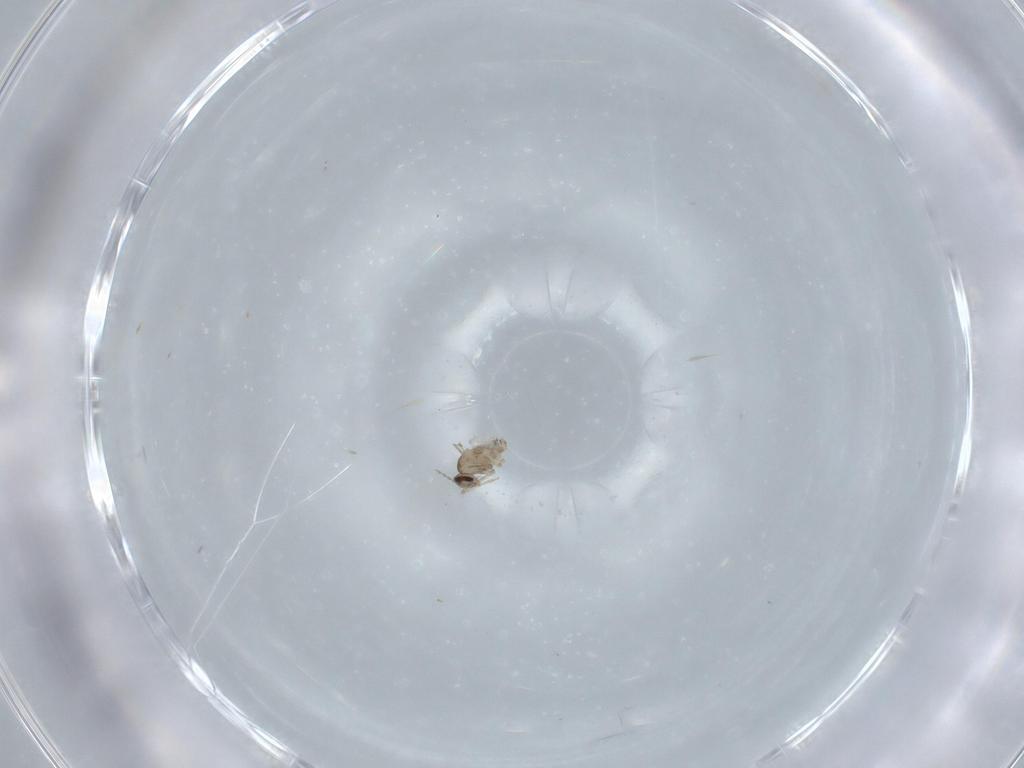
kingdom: Animalia
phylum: Arthropoda
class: Insecta
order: Diptera
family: Cecidomyiidae
